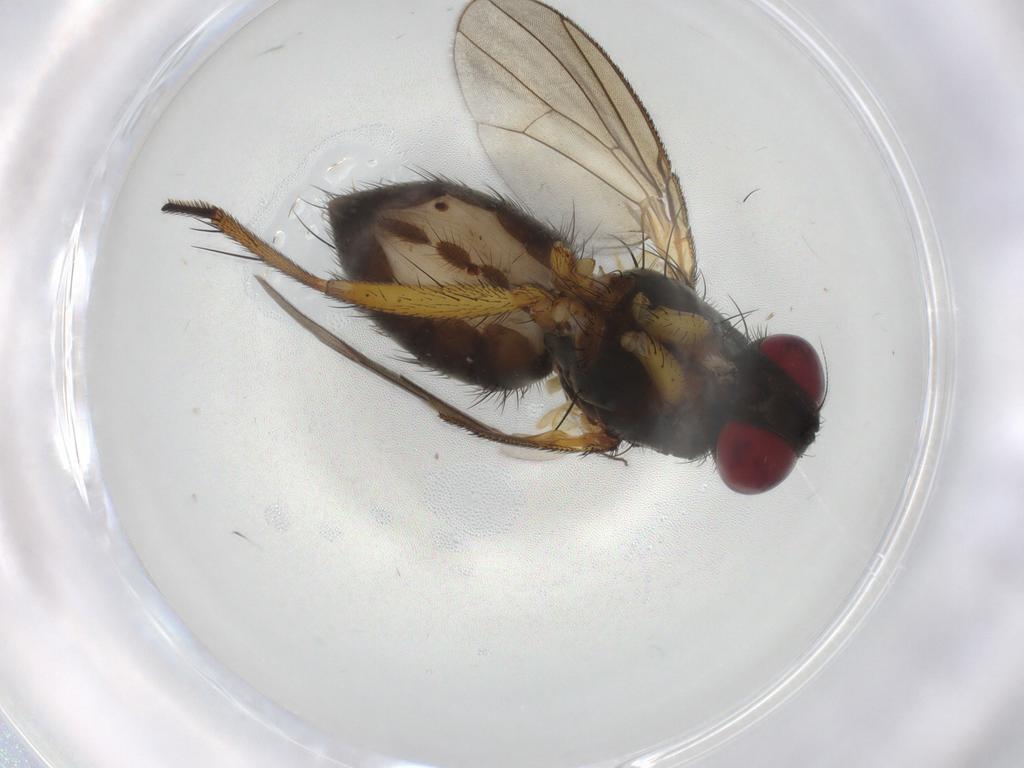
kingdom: Animalia
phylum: Arthropoda
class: Insecta
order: Diptera
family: Chironomidae
